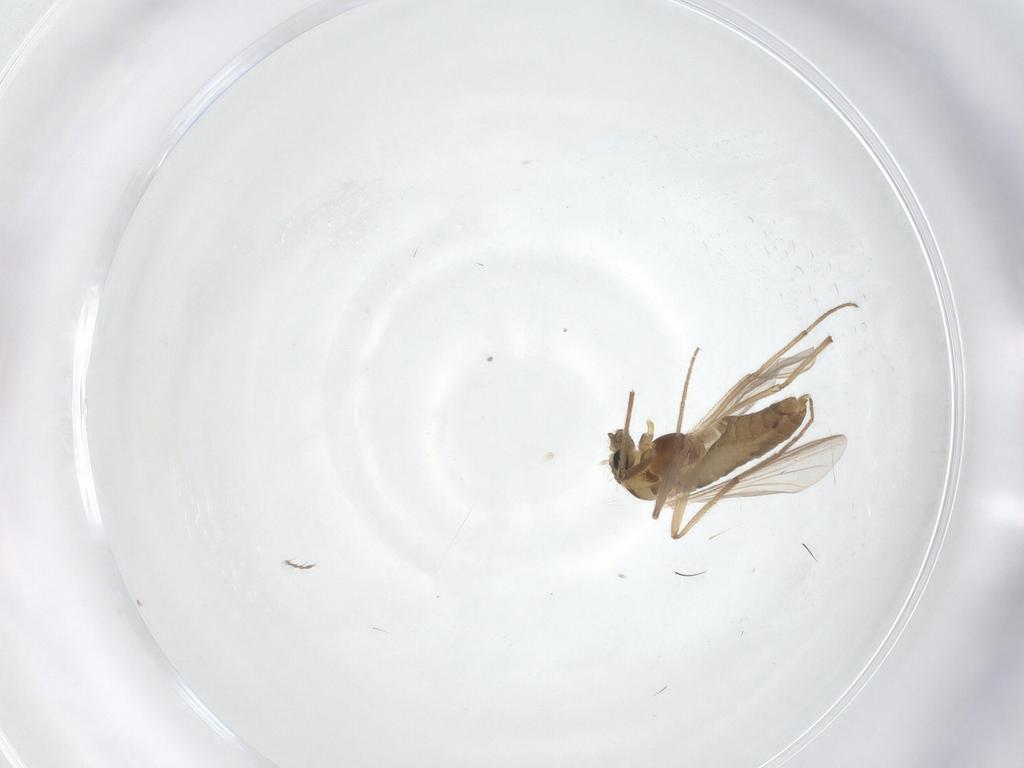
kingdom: Animalia
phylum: Arthropoda
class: Insecta
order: Diptera
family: Chironomidae
